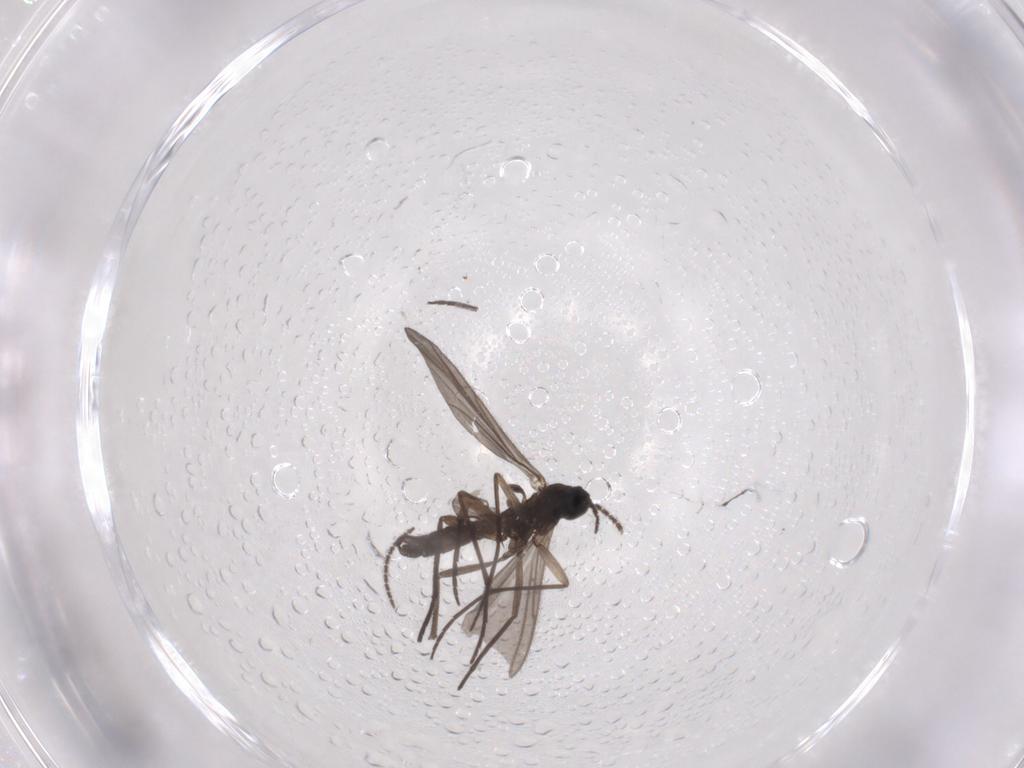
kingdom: Animalia
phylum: Arthropoda
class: Insecta
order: Diptera
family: Sciaridae
